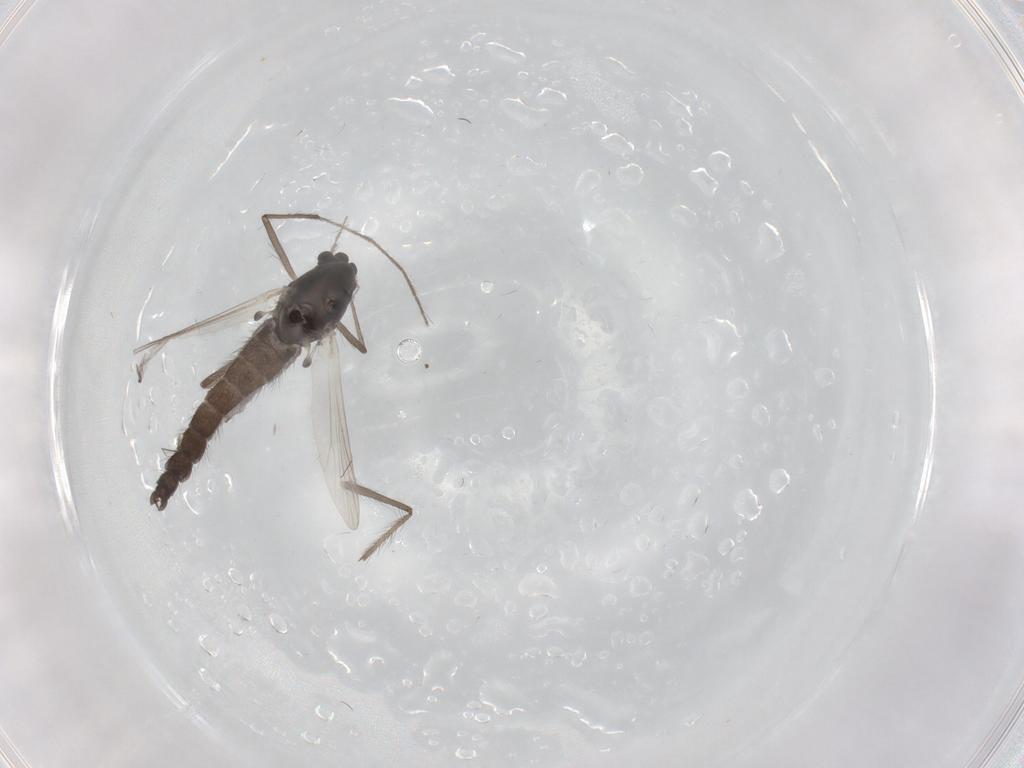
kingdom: Animalia
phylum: Arthropoda
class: Insecta
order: Diptera
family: Chironomidae
